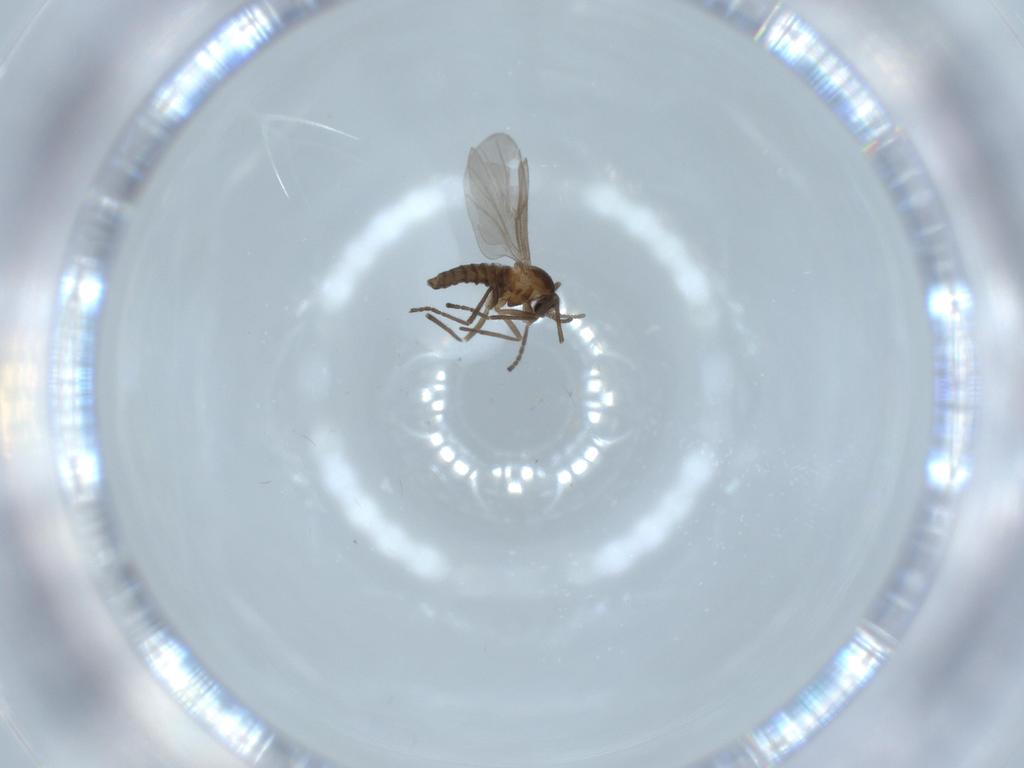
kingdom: Animalia
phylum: Arthropoda
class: Insecta
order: Diptera
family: Cecidomyiidae
